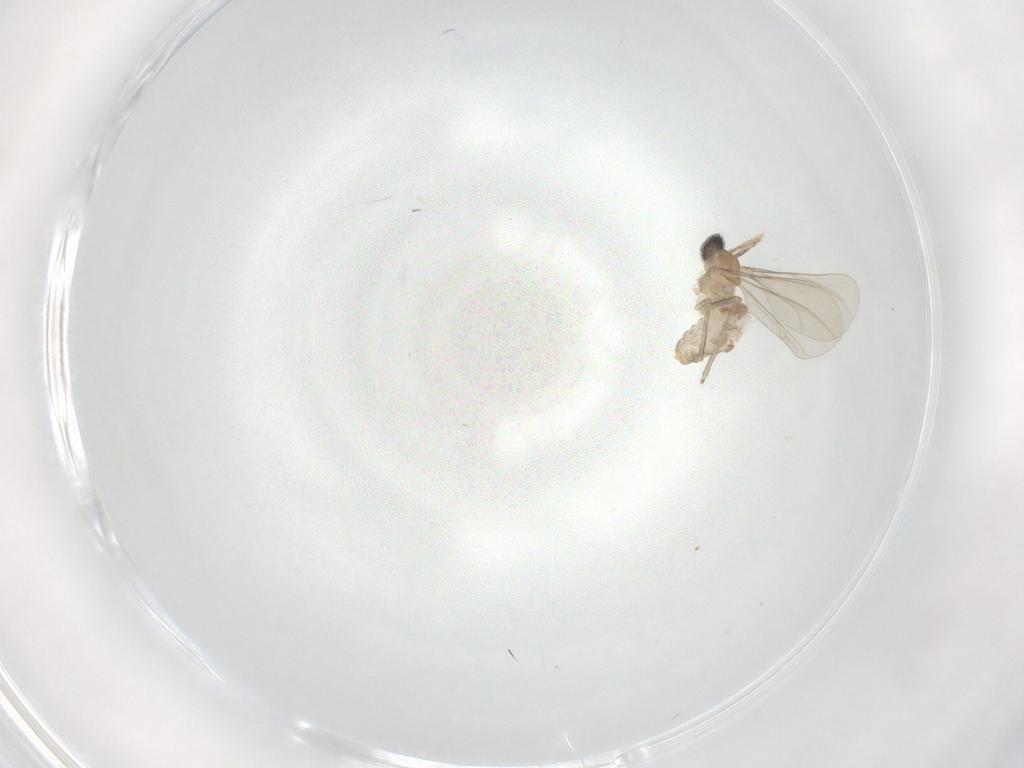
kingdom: Animalia
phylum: Arthropoda
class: Insecta
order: Diptera
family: Cecidomyiidae
